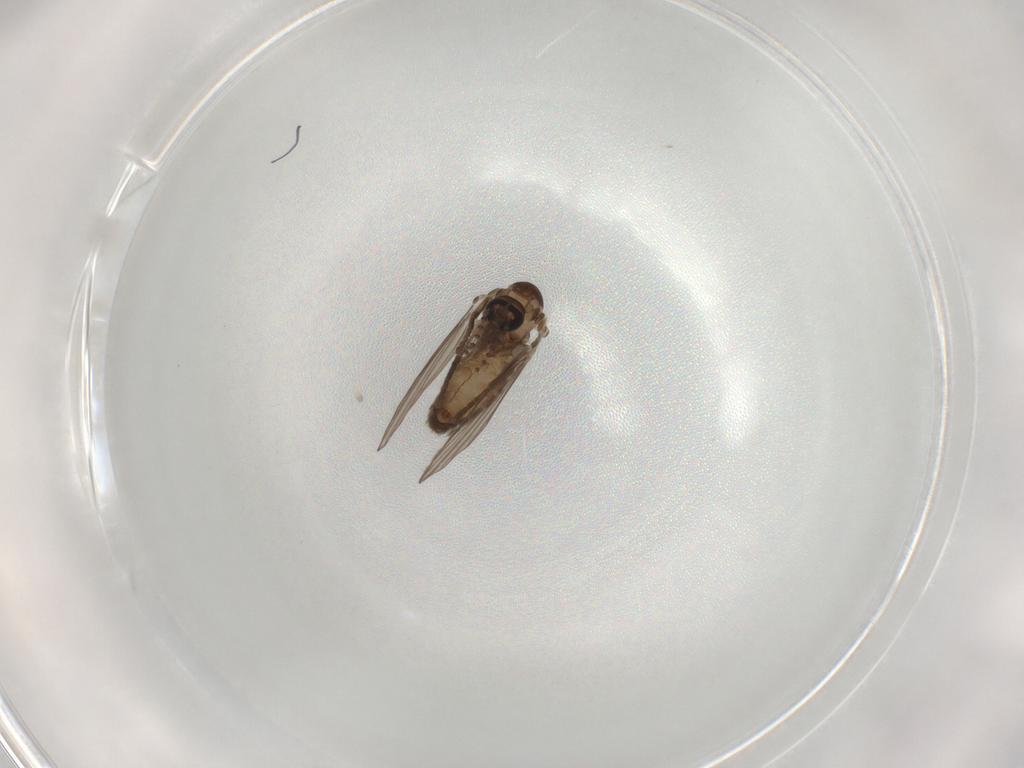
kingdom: Animalia
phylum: Arthropoda
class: Insecta
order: Diptera
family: Psychodidae
